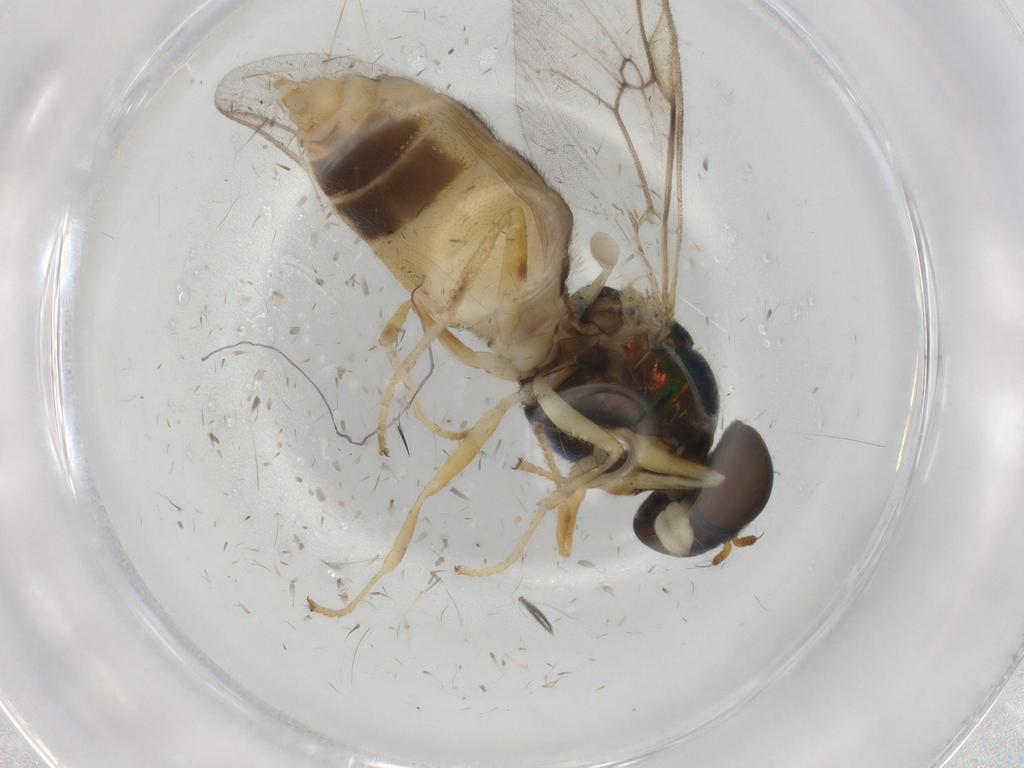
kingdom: Animalia
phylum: Arthropoda
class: Insecta
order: Diptera
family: Stratiomyidae
